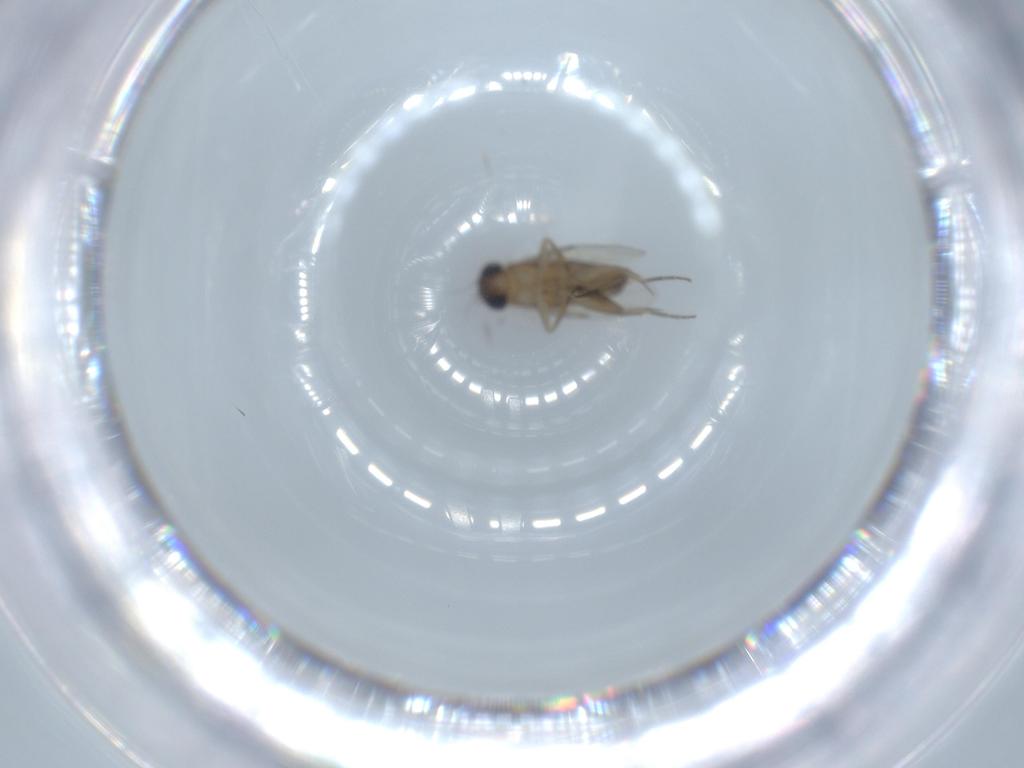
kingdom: Animalia
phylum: Arthropoda
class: Insecta
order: Diptera
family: Phoridae
